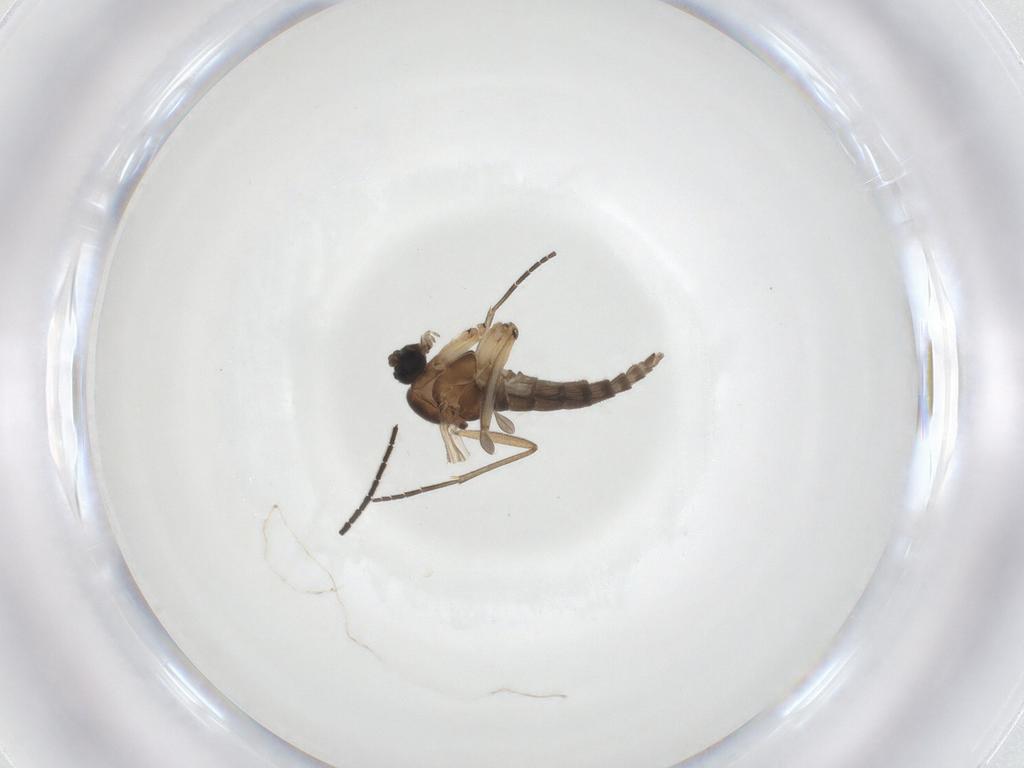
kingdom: Animalia
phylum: Arthropoda
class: Insecta
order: Diptera
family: Sciaridae
